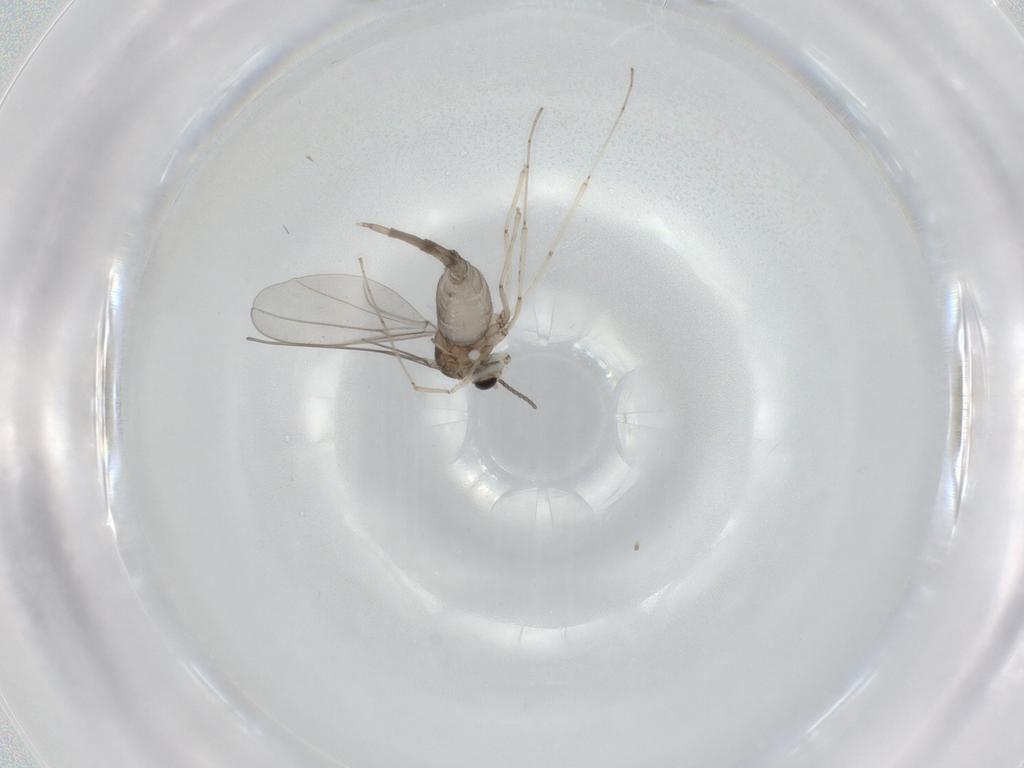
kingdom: Animalia
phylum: Arthropoda
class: Insecta
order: Diptera
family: Cecidomyiidae
